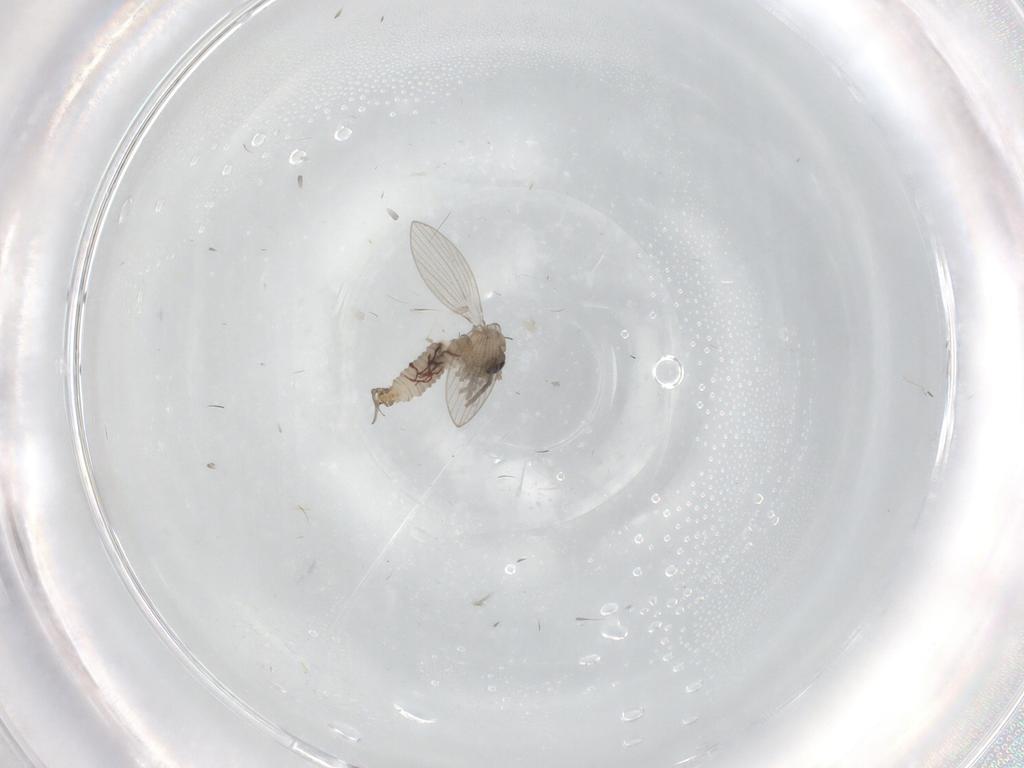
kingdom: Animalia
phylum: Arthropoda
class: Insecta
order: Diptera
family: Psychodidae
